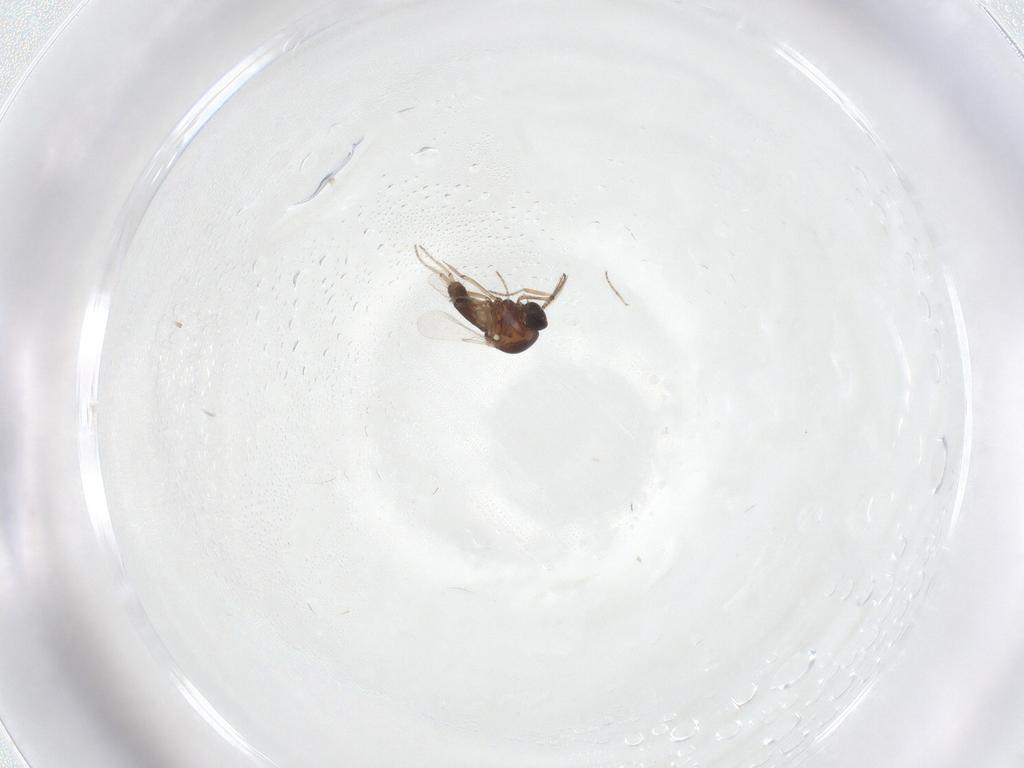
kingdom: Animalia
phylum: Arthropoda
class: Insecta
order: Diptera
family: Ceratopogonidae
